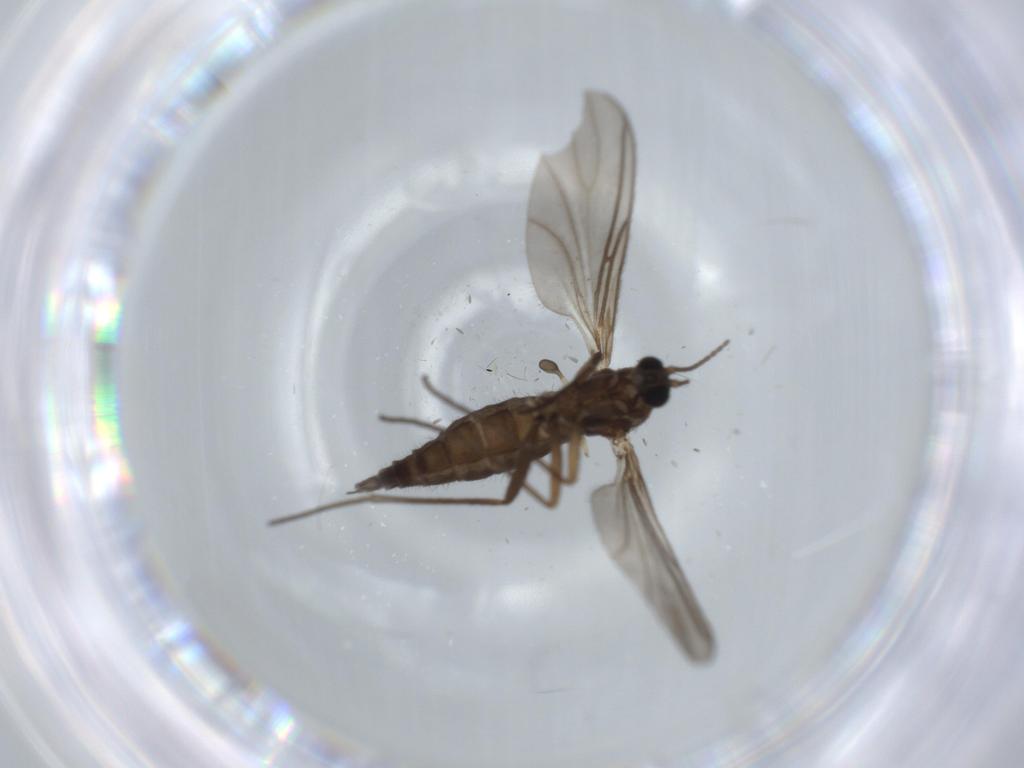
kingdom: Animalia
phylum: Arthropoda
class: Insecta
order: Diptera
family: Sciaridae
